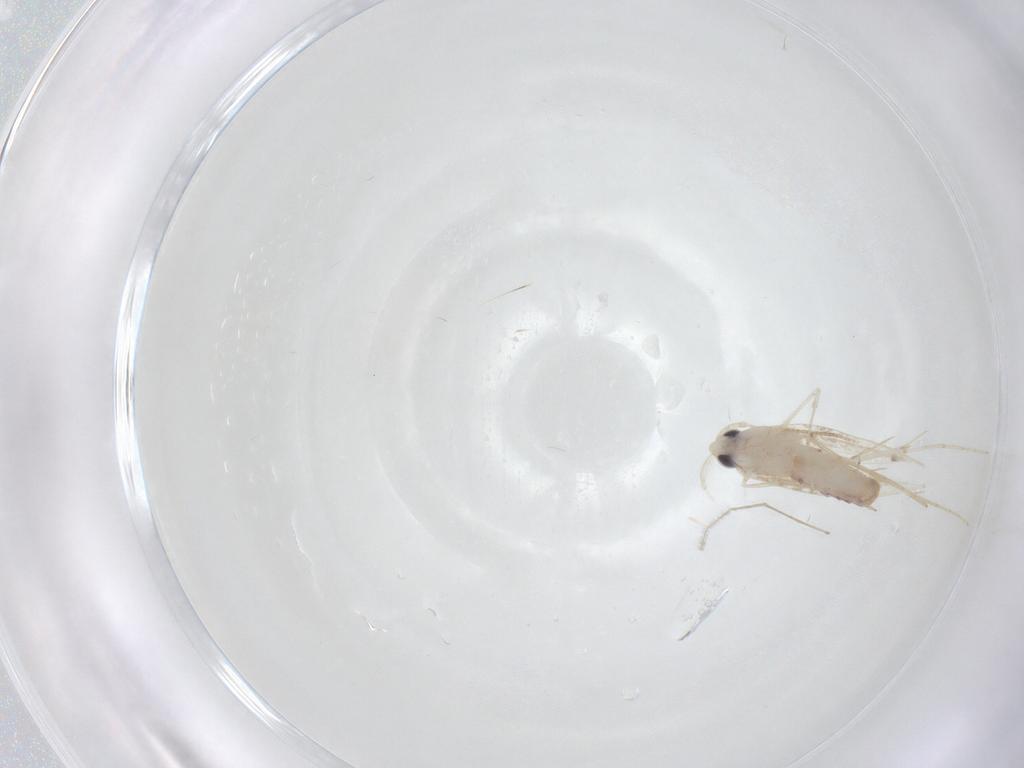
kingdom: Animalia
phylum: Arthropoda
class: Insecta
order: Lepidoptera
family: Saturniidae
